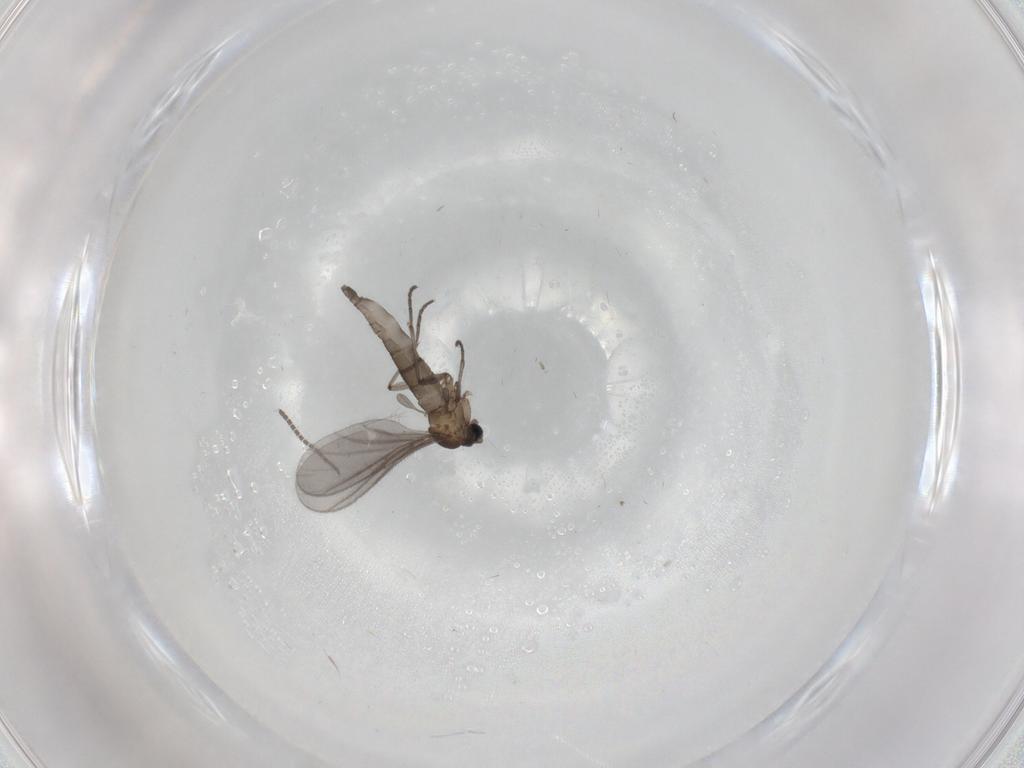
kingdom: Animalia
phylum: Arthropoda
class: Insecta
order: Diptera
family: Sciaridae
